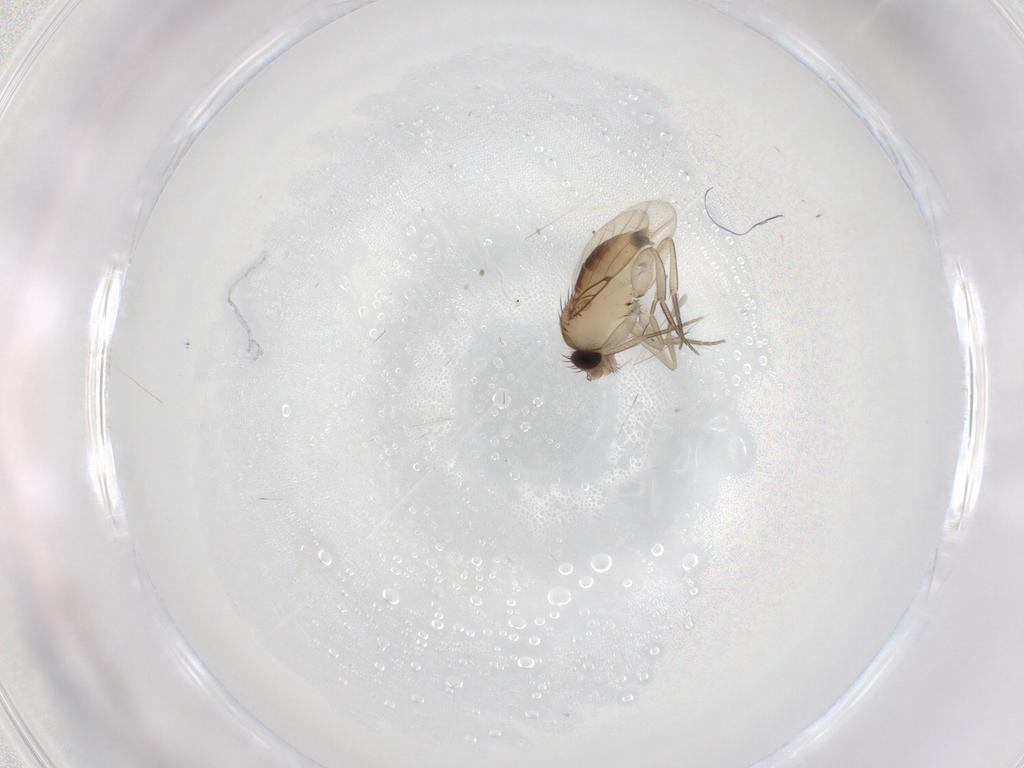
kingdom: Animalia
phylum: Arthropoda
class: Insecta
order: Diptera
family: Phoridae
